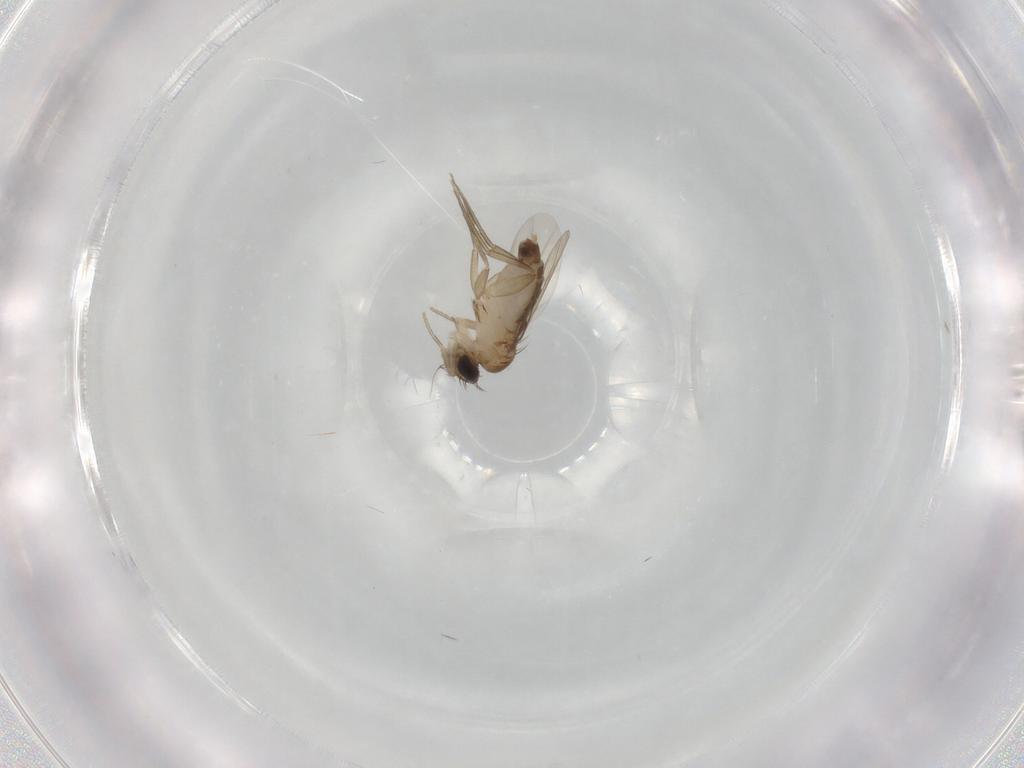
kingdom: Animalia
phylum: Arthropoda
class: Insecta
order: Diptera
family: Phoridae
